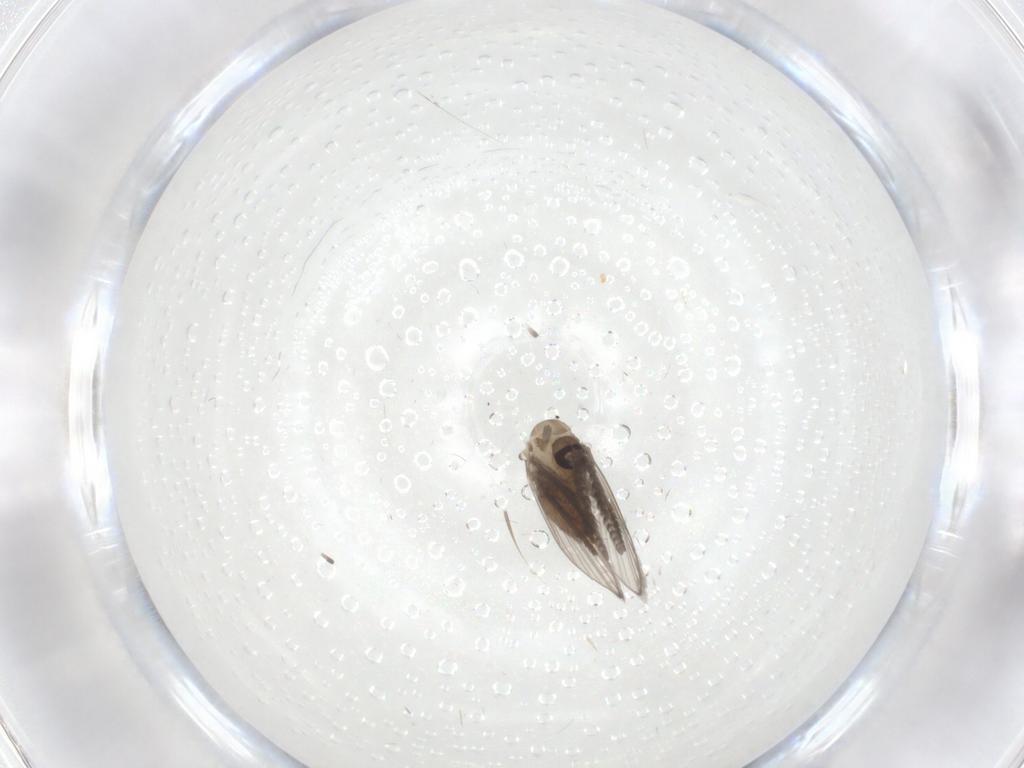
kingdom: Animalia
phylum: Arthropoda
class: Insecta
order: Diptera
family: Psychodidae
